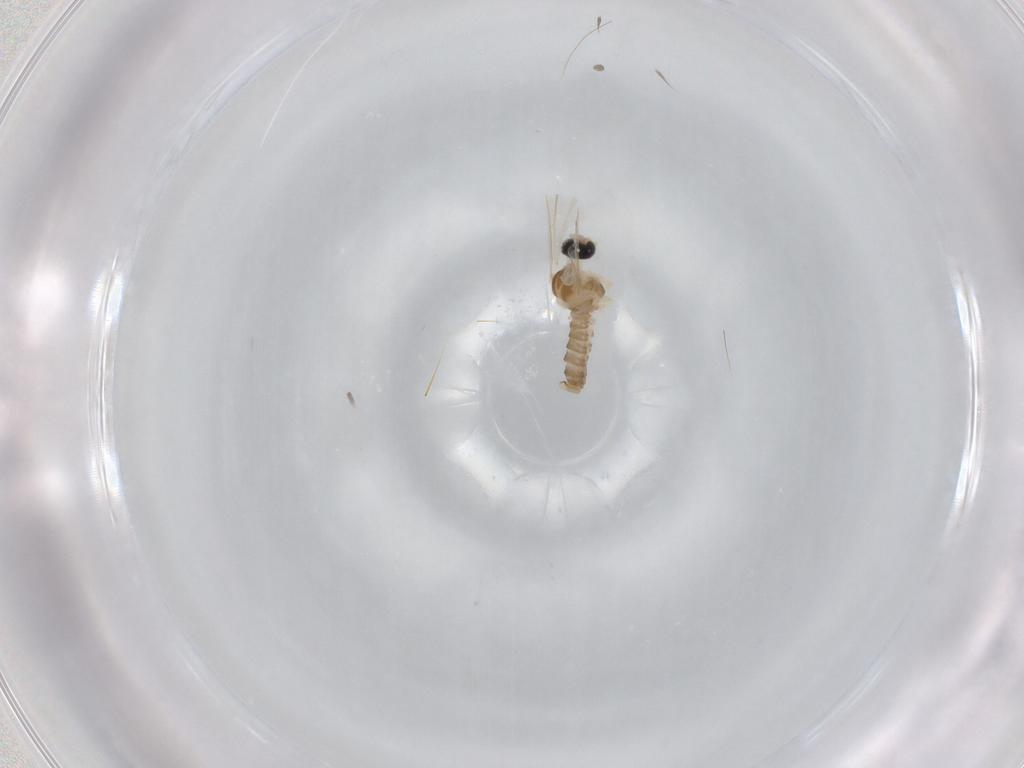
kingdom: Animalia
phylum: Arthropoda
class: Insecta
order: Diptera
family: Cecidomyiidae
